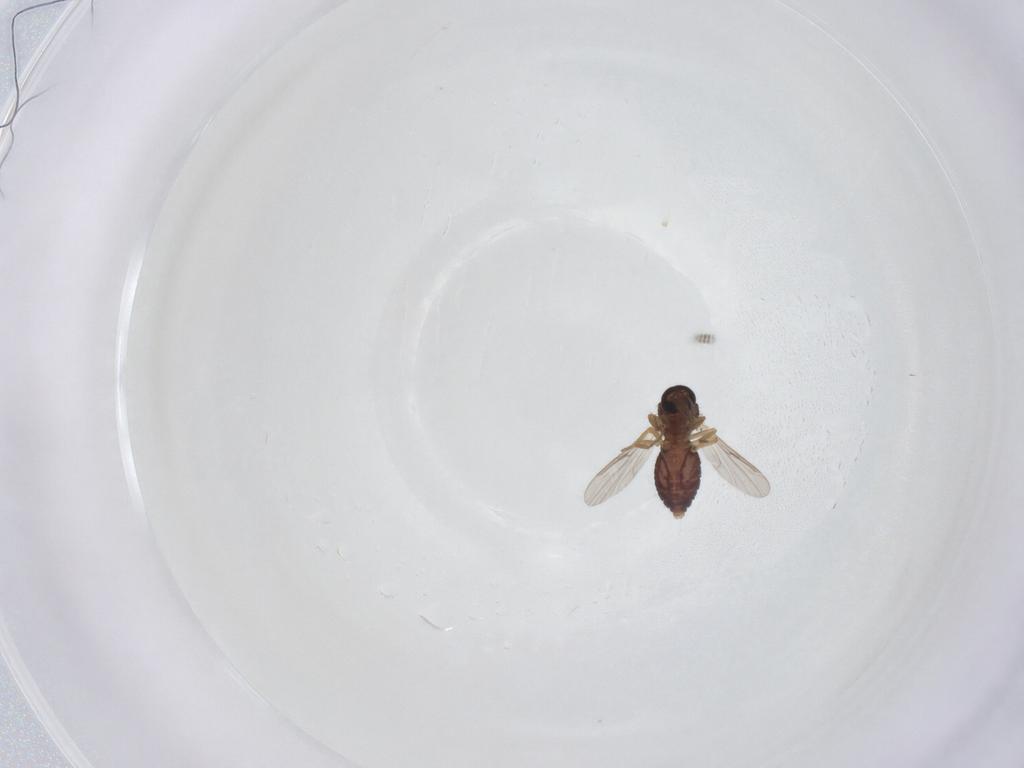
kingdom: Animalia
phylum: Arthropoda
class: Insecta
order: Diptera
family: Ceratopogonidae
